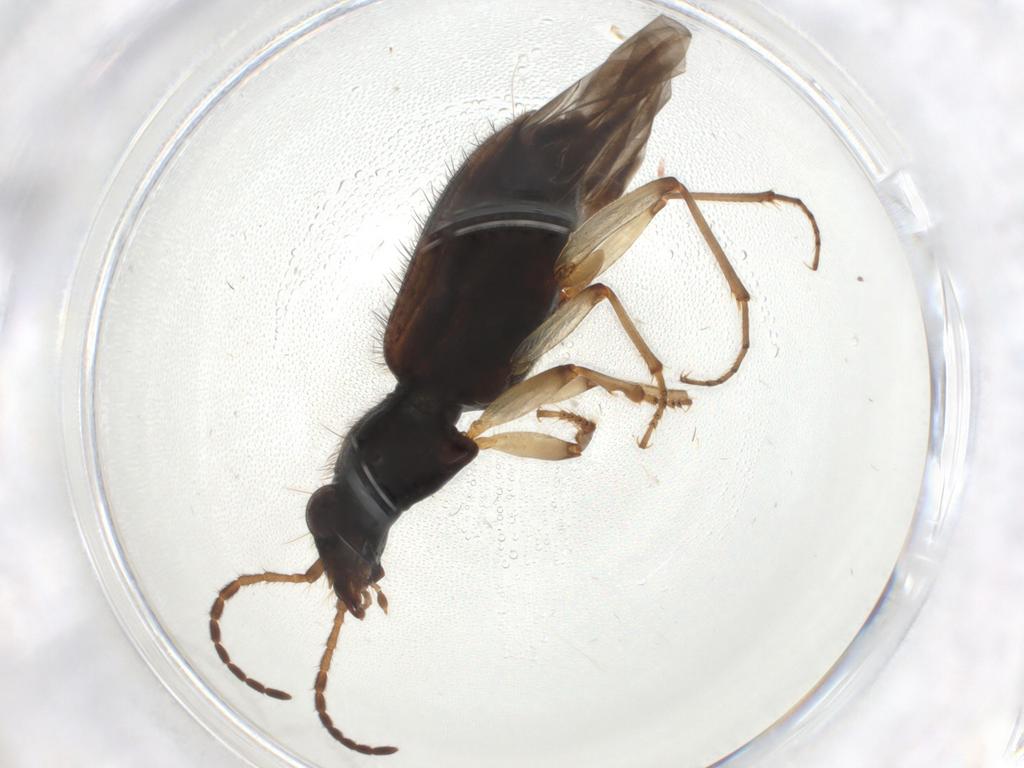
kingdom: Animalia
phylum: Arthropoda
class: Insecta
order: Coleoptera
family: Carabidae
